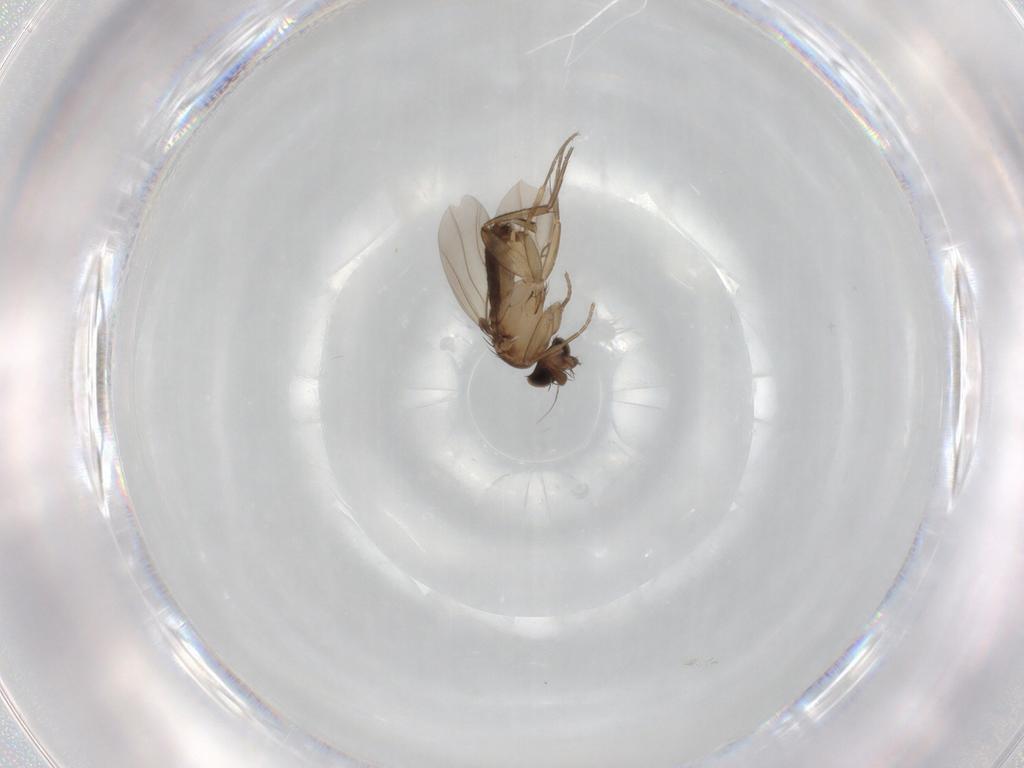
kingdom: Animalia
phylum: Arthropoda
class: Insecta
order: Diptera
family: Phoridae
